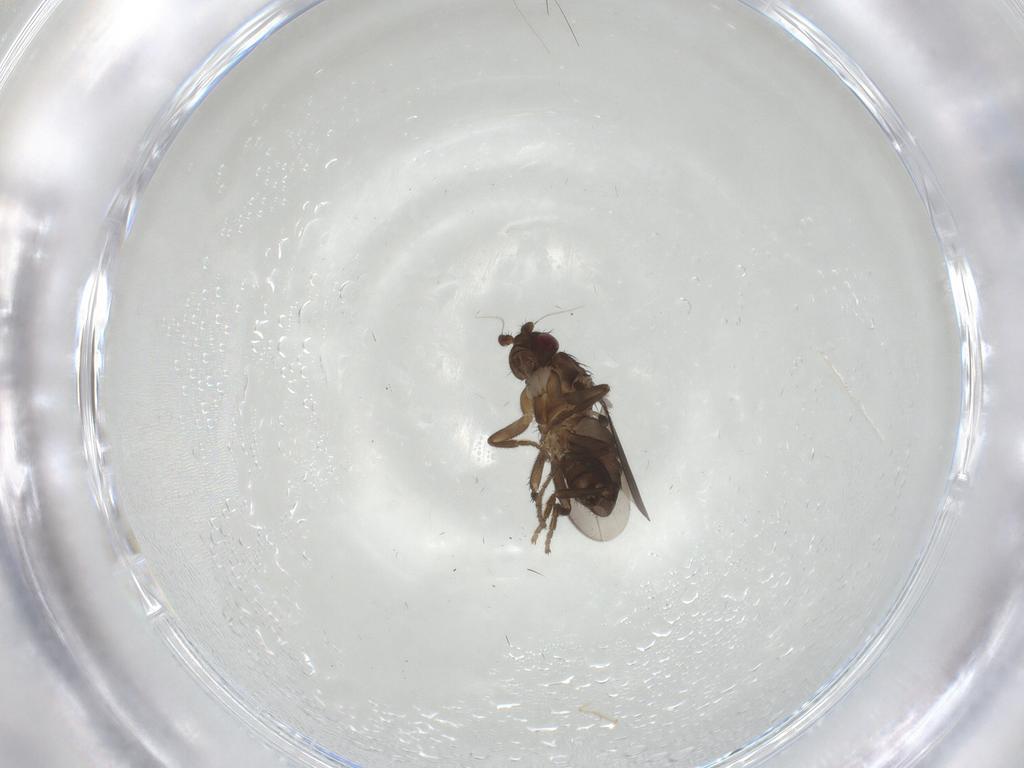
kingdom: Animalia
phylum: Arthropoda
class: Insecta
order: Diptera
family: Sphaeroceridae
